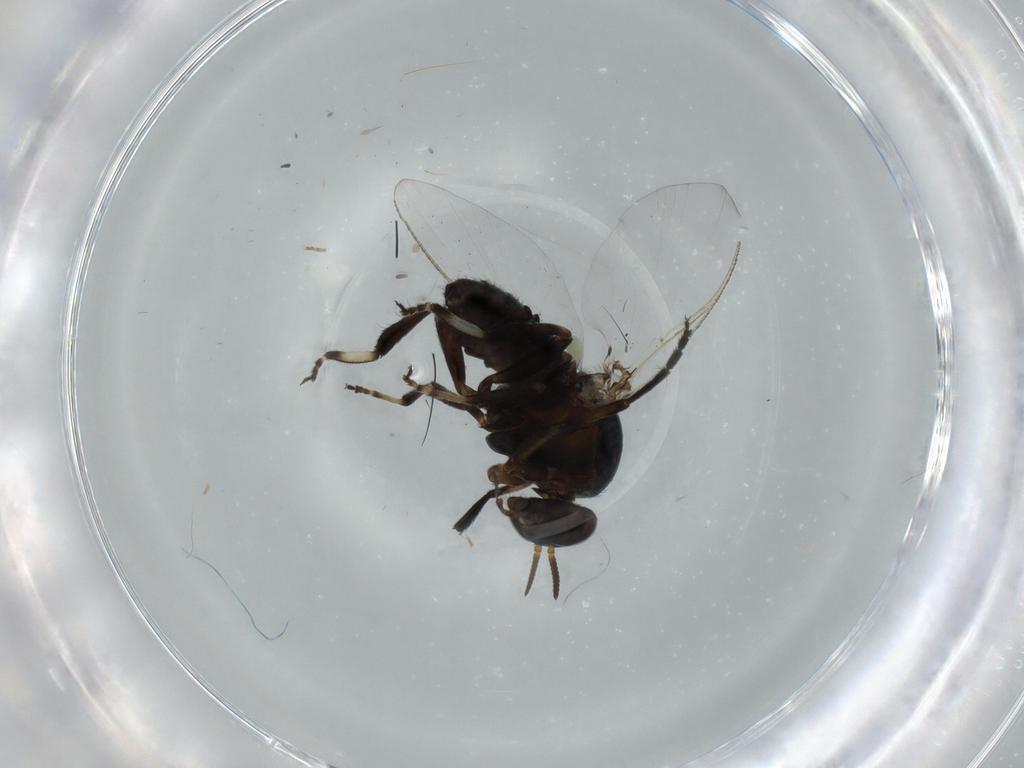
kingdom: Animalia
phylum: Arthropoda
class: Insecta
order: Diptera
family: Phoridae
